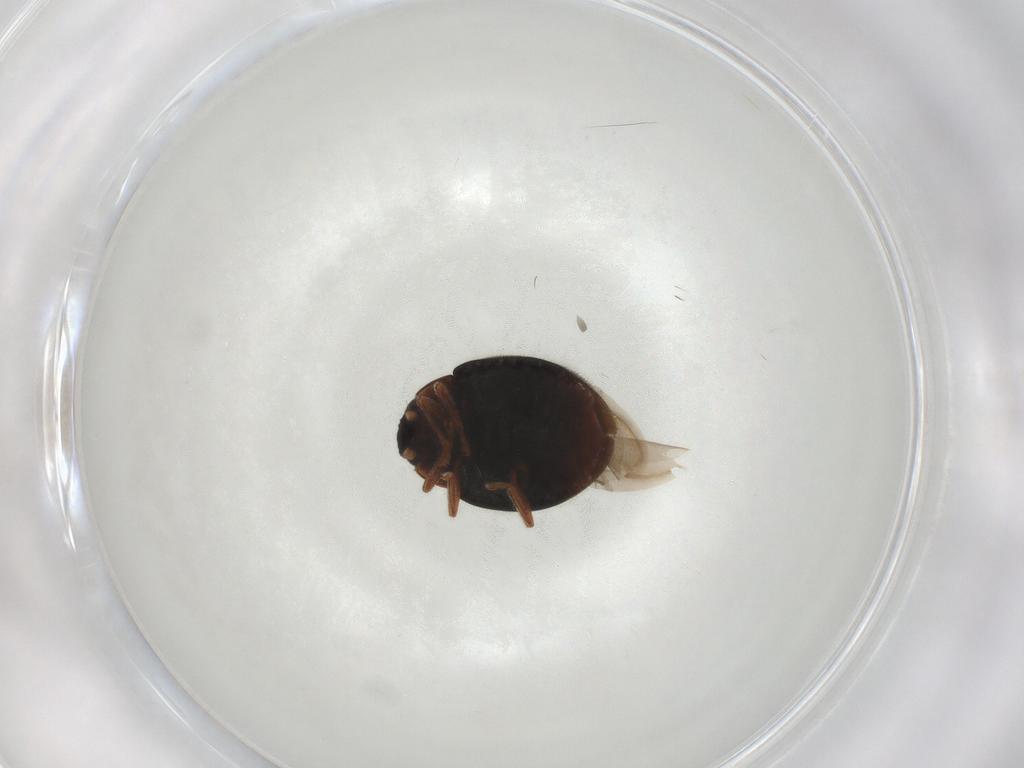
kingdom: Animalia
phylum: Arthropoda
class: Insecta
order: Coleoptera
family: Coccinellidae
